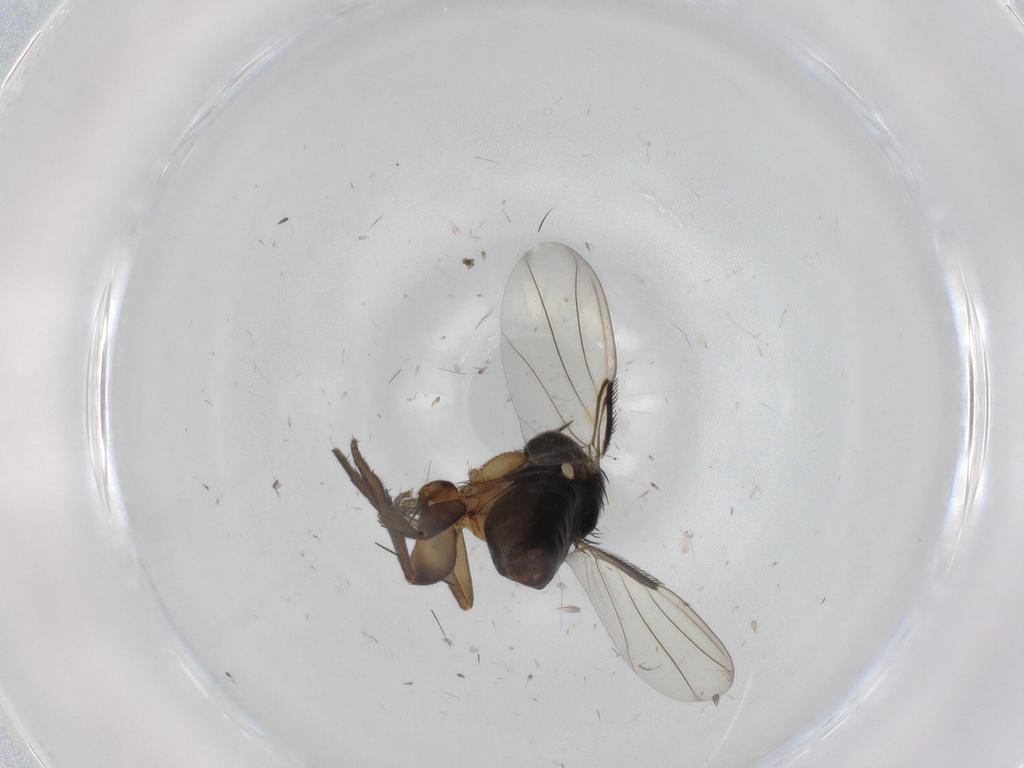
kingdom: Animalia
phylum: Arthropoda
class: Insecta
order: Diptera
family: Phoridae
